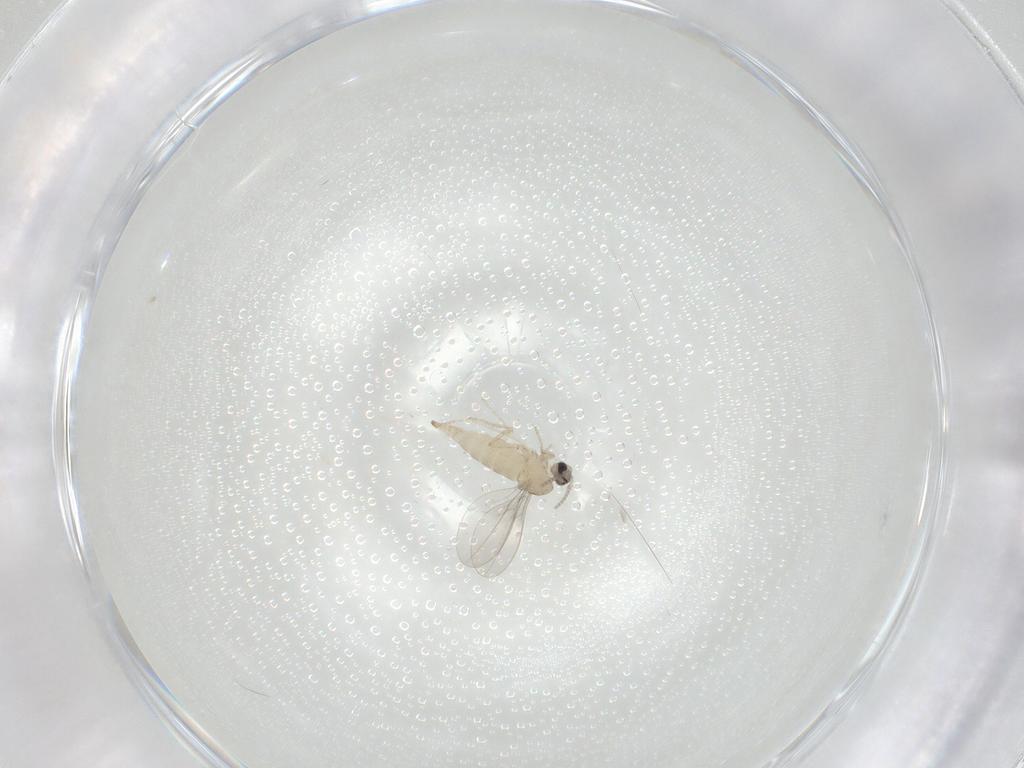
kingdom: Animalia
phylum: Arthropoda
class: Insecta
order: Diptera
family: Cecidomyiidae
